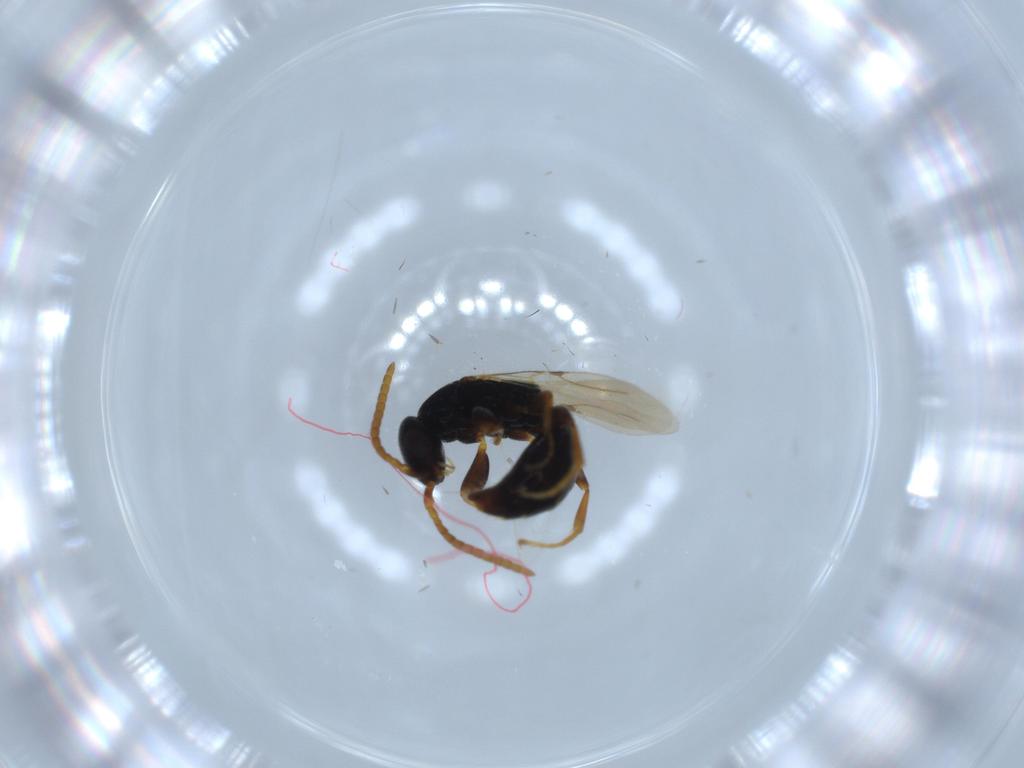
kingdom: Animalia
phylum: Arthropoda
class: Insecta
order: Hymenoptera
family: Bethylidae
